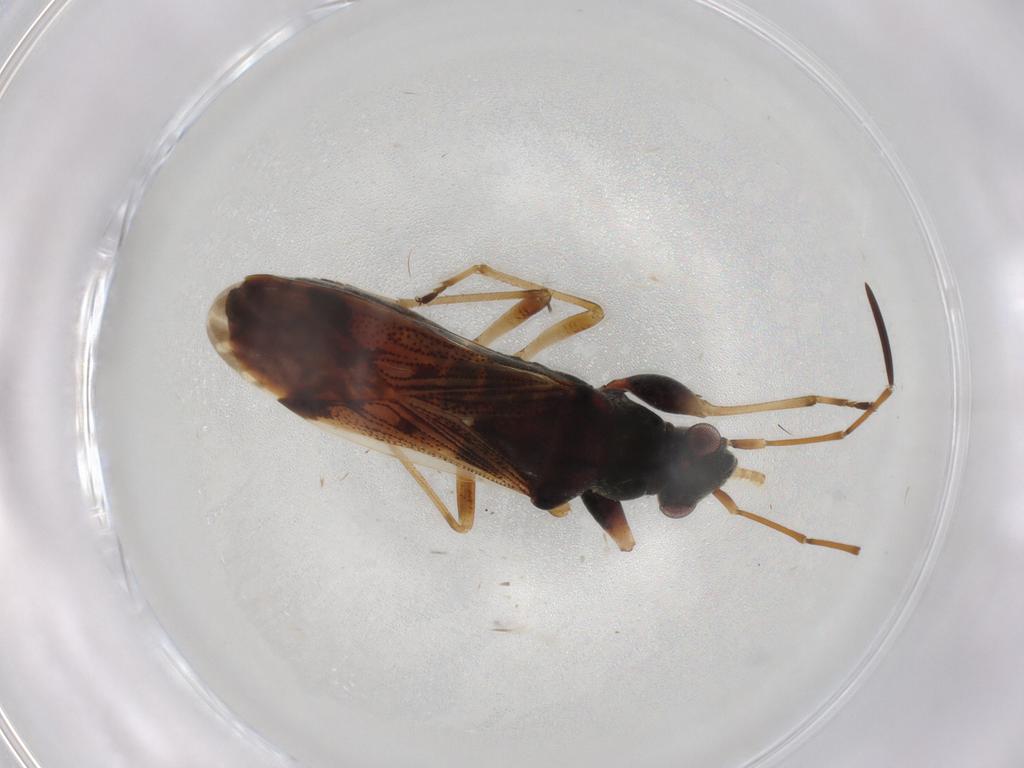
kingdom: Animalia
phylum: Arthropoda
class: Insecta
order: Hemiptera
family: Rhyparochromidae
